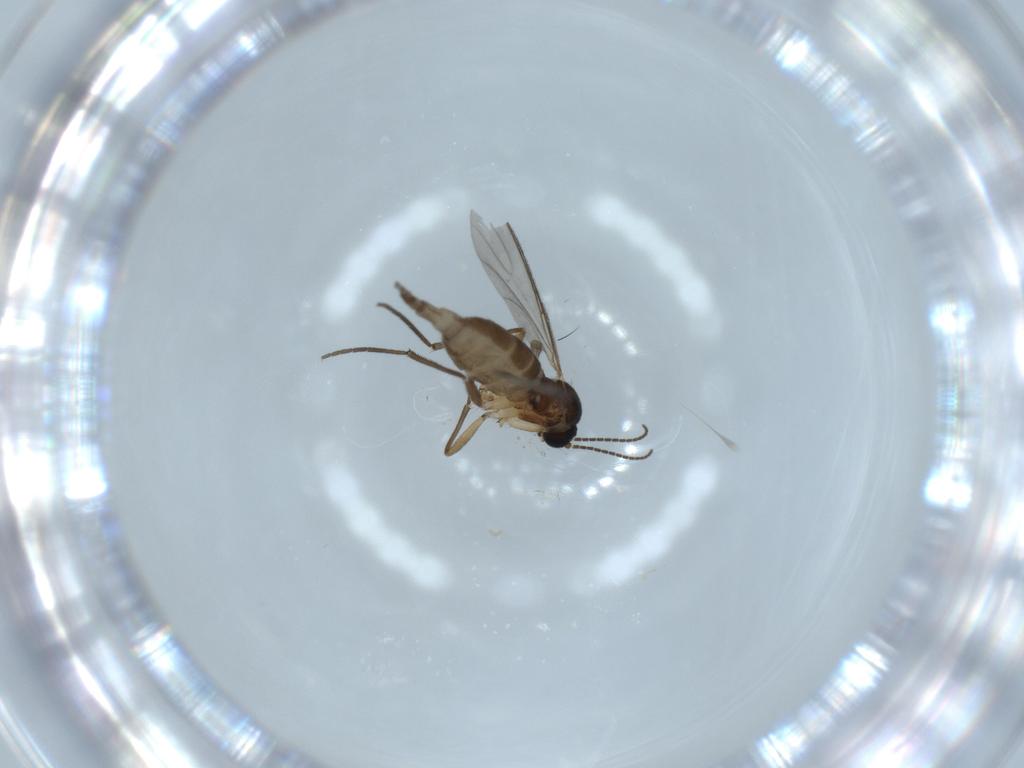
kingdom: Animalia
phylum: Arthropoda
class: Insecta
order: Diptera
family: Sciaridae
